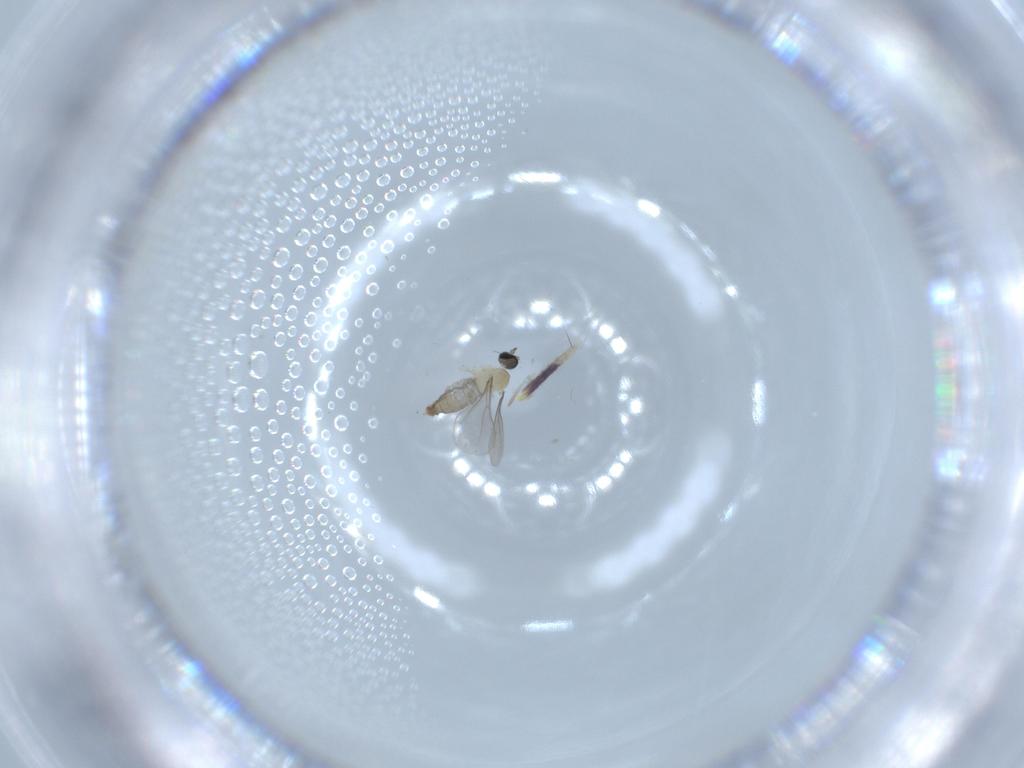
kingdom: Animalia
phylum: Arthropoda
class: Insecta
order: Diptera
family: Cecidomyiidae
